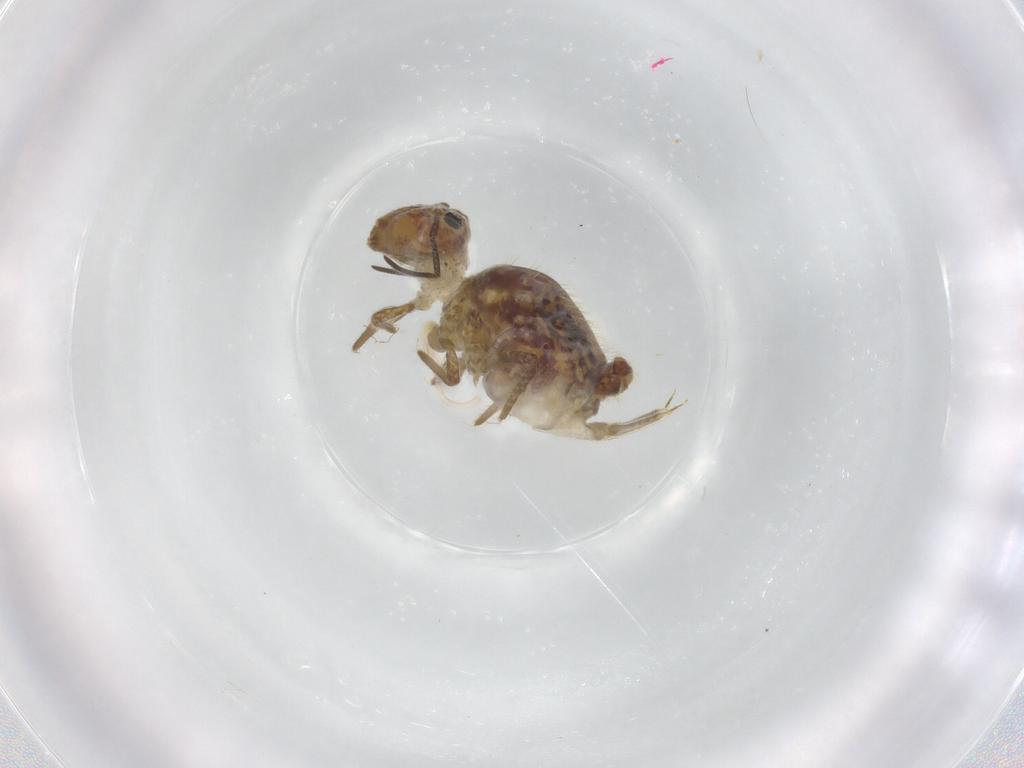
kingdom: Animalia
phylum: Arthropoda
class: Collembola
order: Symphypleona
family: Sminthuridae
